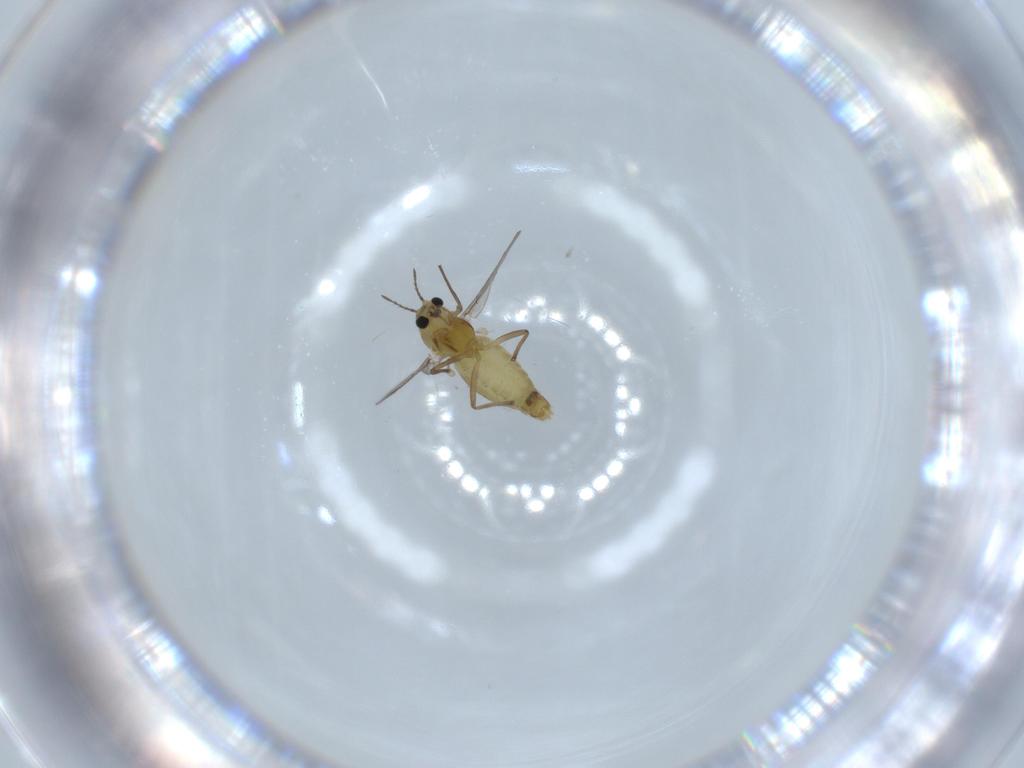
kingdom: Animalia
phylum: Arthropoda
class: Insecta
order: Diptera
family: Chironomidae
